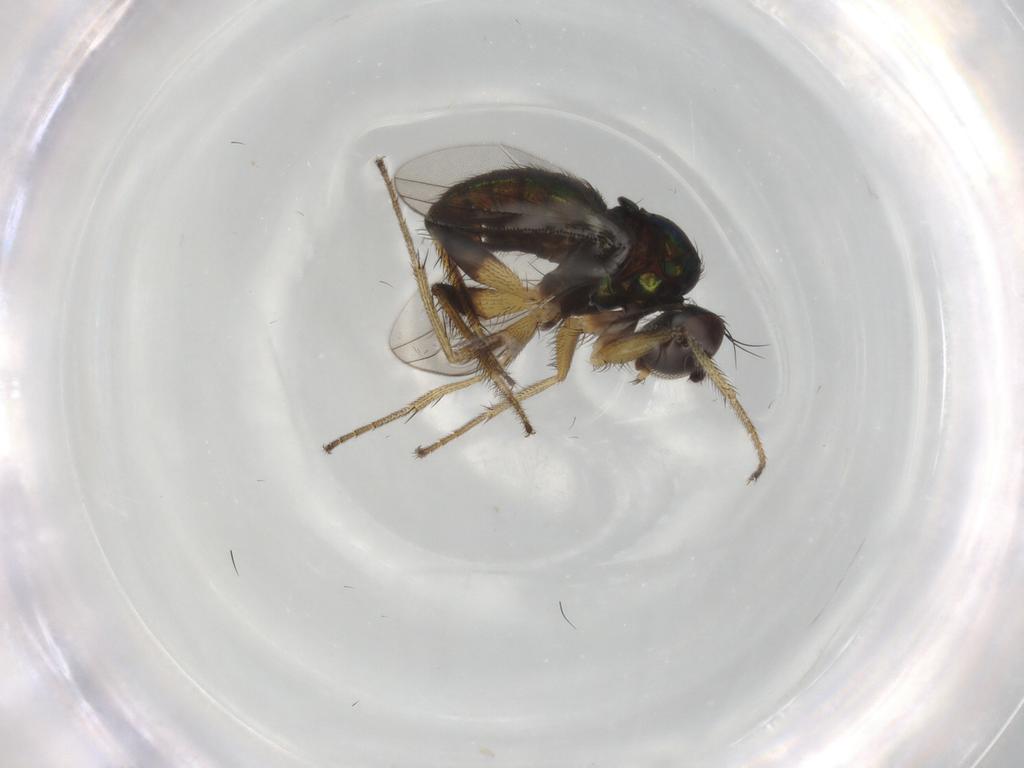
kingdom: Animalia
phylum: Arthropoda
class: Insecta
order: Diptera
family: Dolichopodidae
